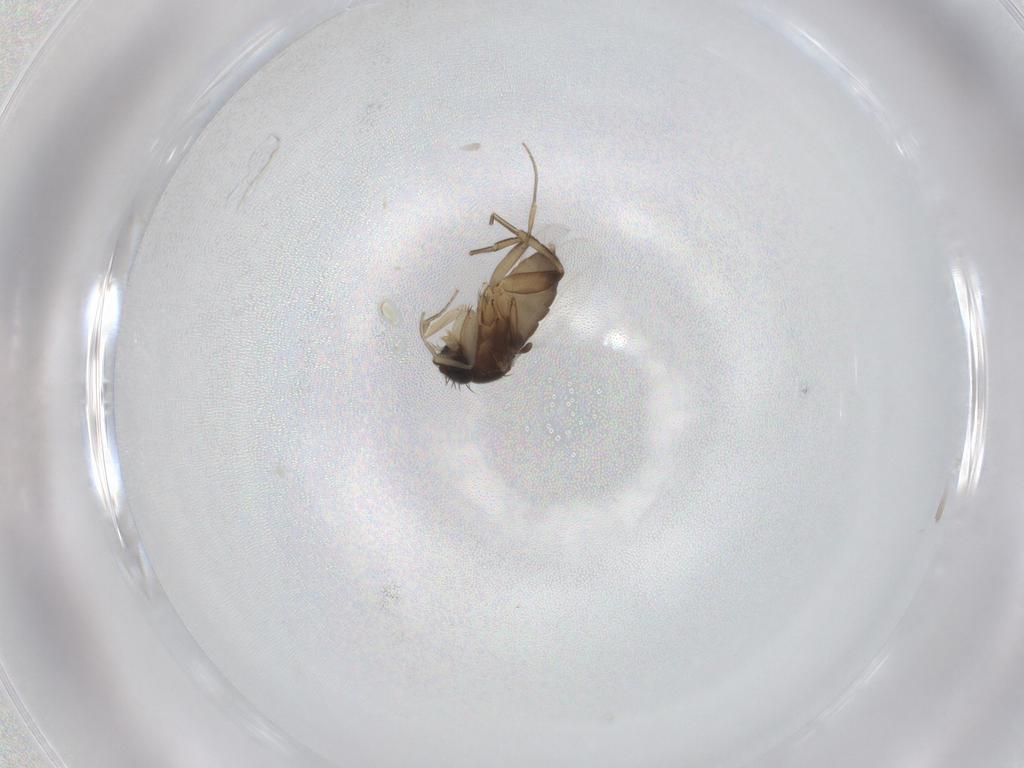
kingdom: Animalia
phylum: Arthropoda
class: Insecta
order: Diptera
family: Phoridae
